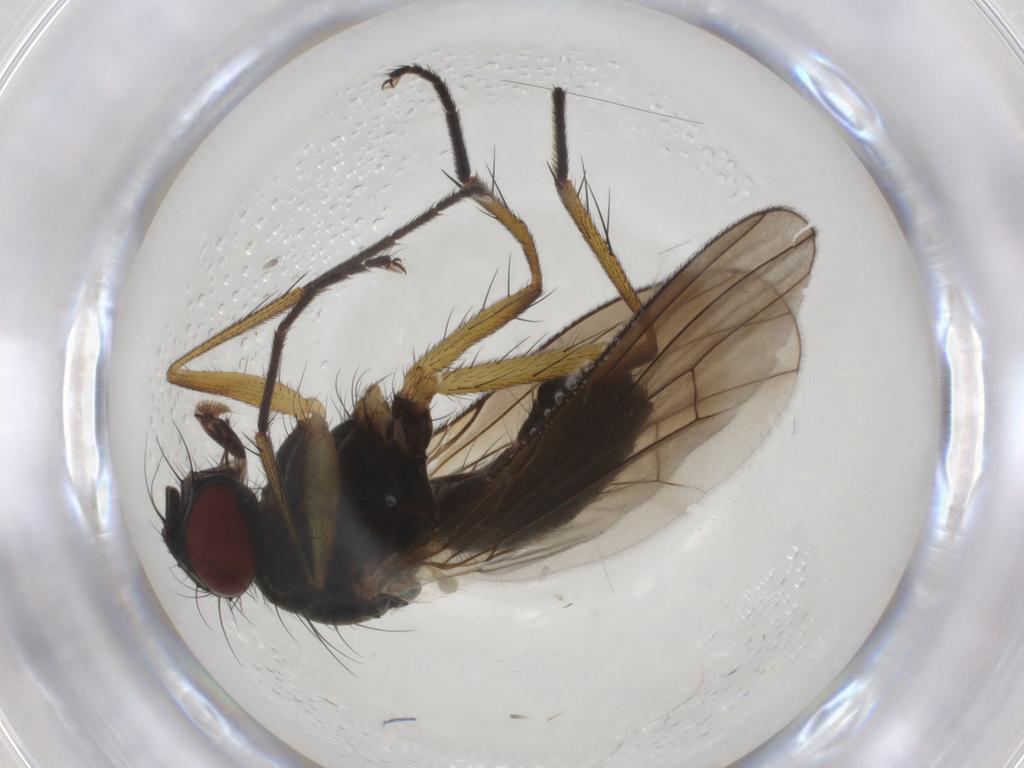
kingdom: Animalia
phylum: Arthropoda
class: Insecta
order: Diptera
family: Muscidae
